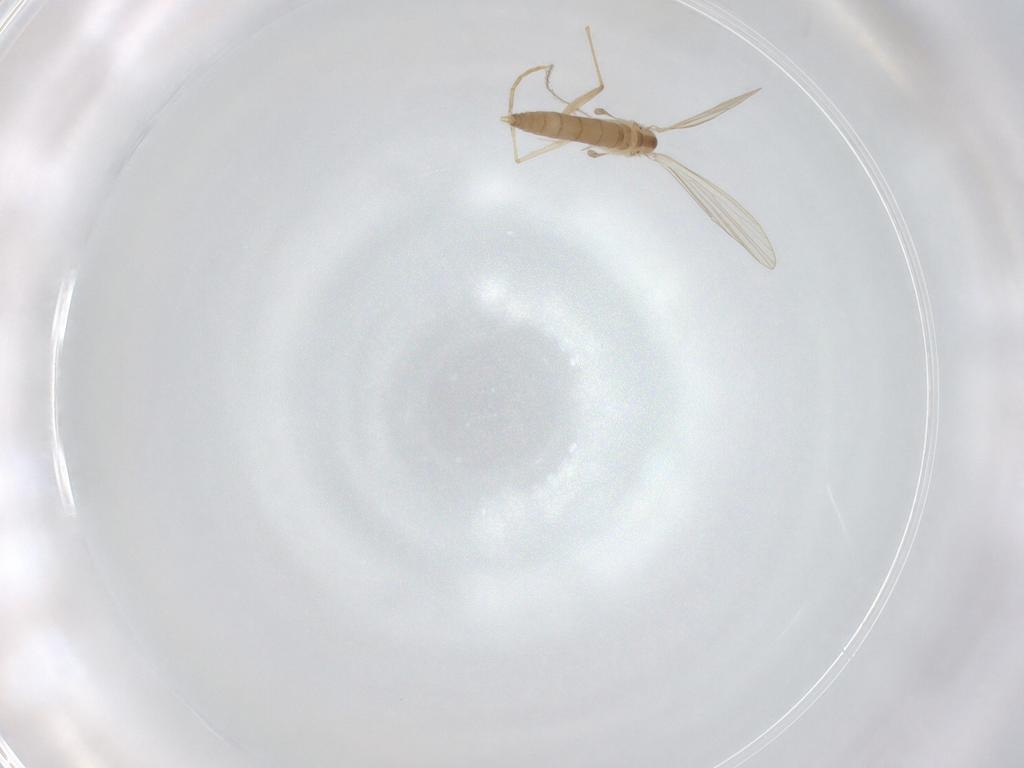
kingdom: Animalia
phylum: Arthropoda
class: Insecta
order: Diptera
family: Psychodidae
